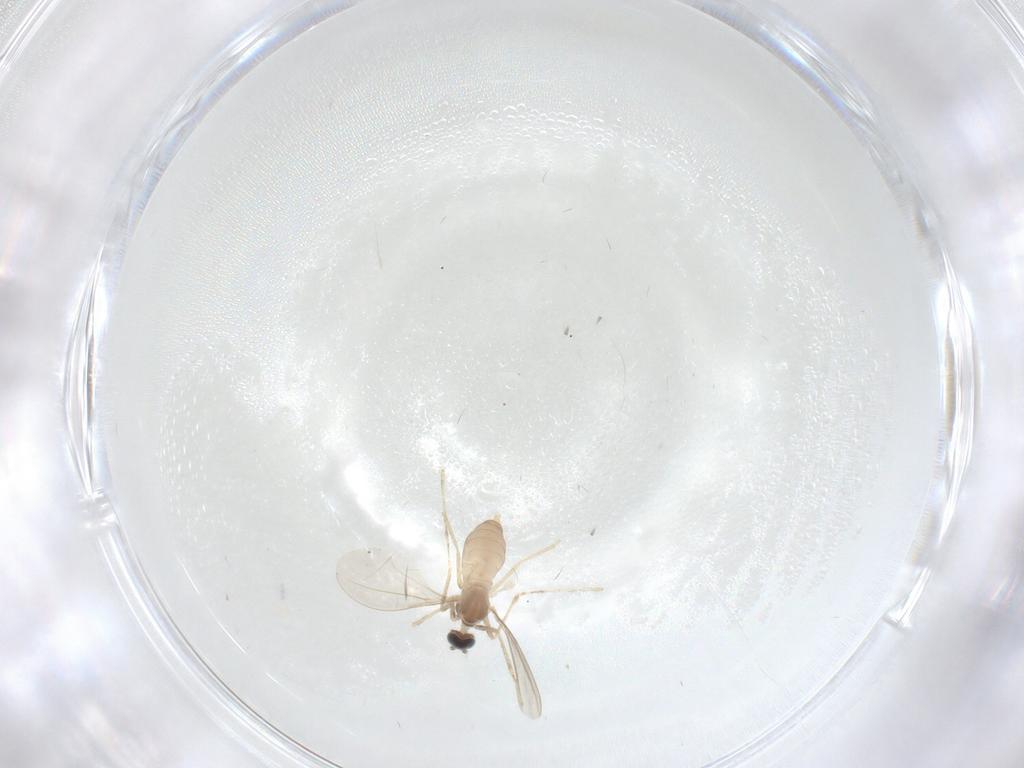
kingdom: Animalia
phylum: Arthropoda
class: Insecta
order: Diptera
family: Cecidomyiidae
